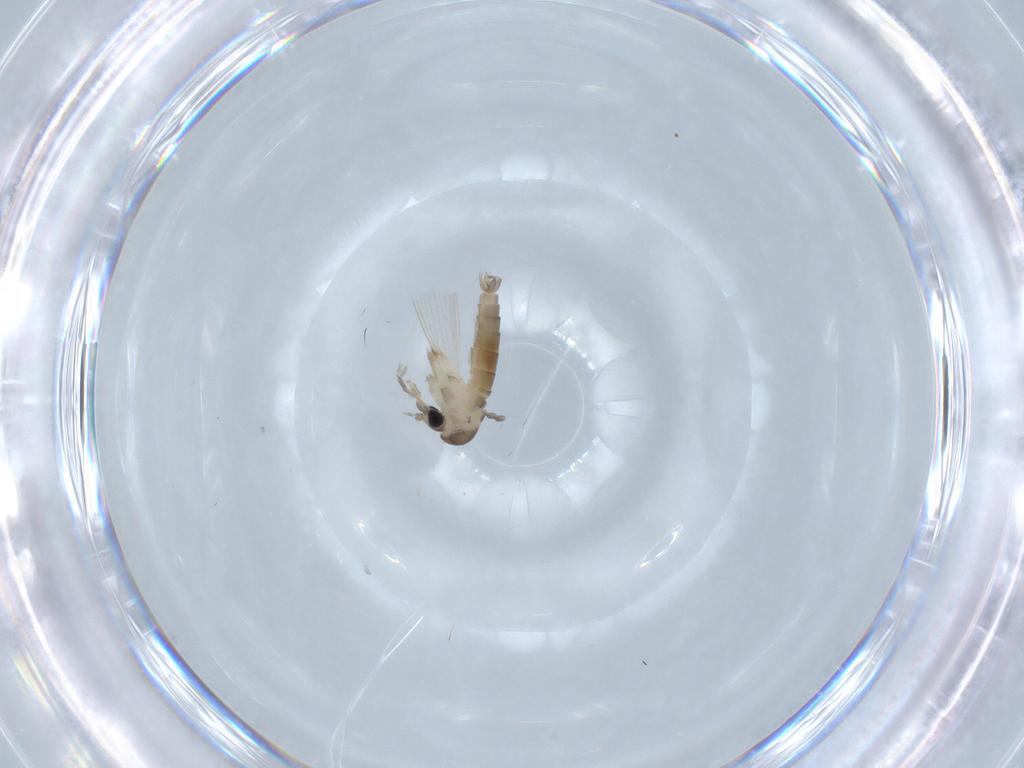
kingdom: Animalia
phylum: Arthropoda
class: Insecta
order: Diptera
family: Psychodidae
